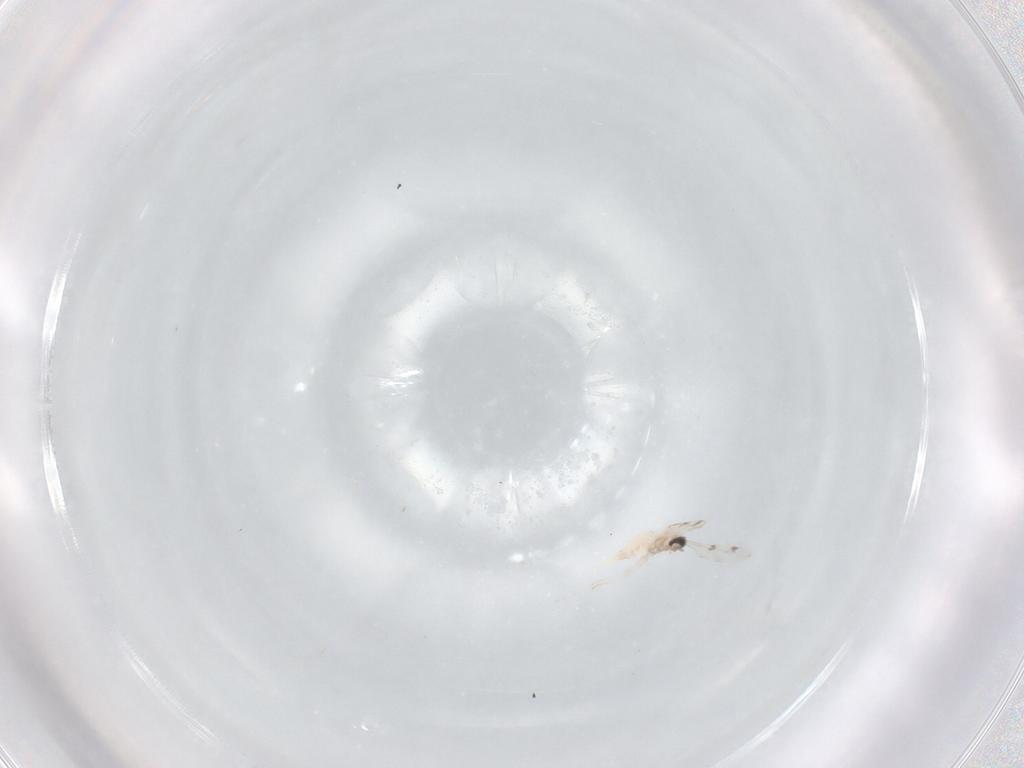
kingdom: Animalia
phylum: Arthropoda
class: Insecta
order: Diptera
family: Cecidomyiidae
